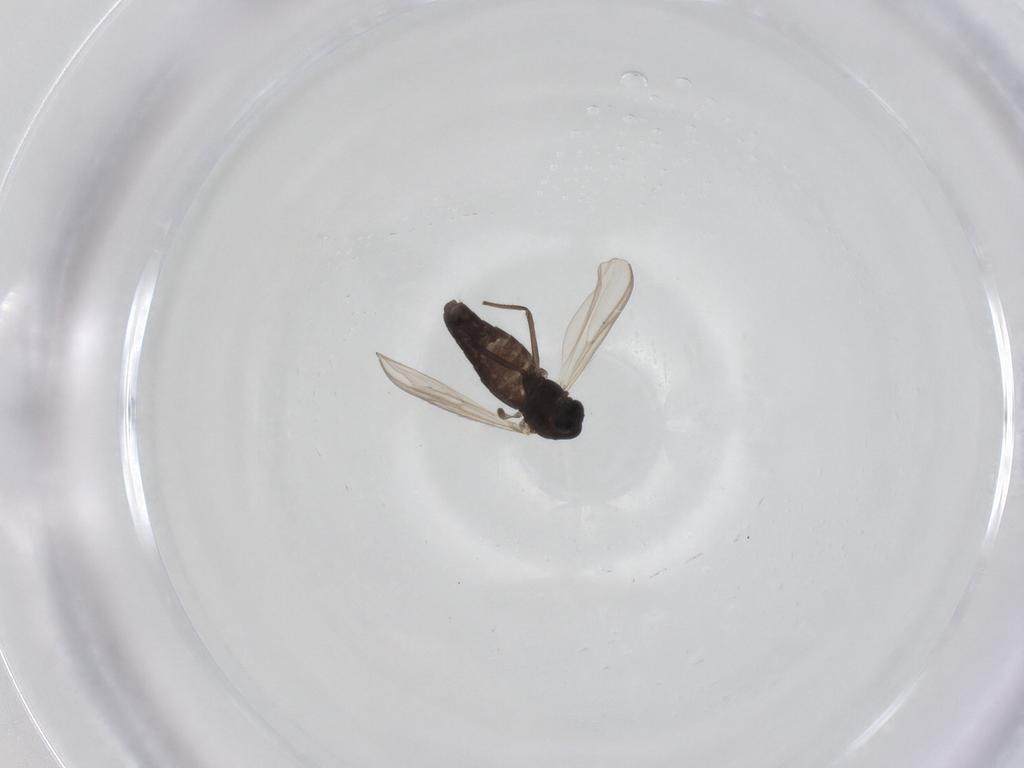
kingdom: Animalia
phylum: Arthropoda
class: Insecta
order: Diptera
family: Chironomidae
